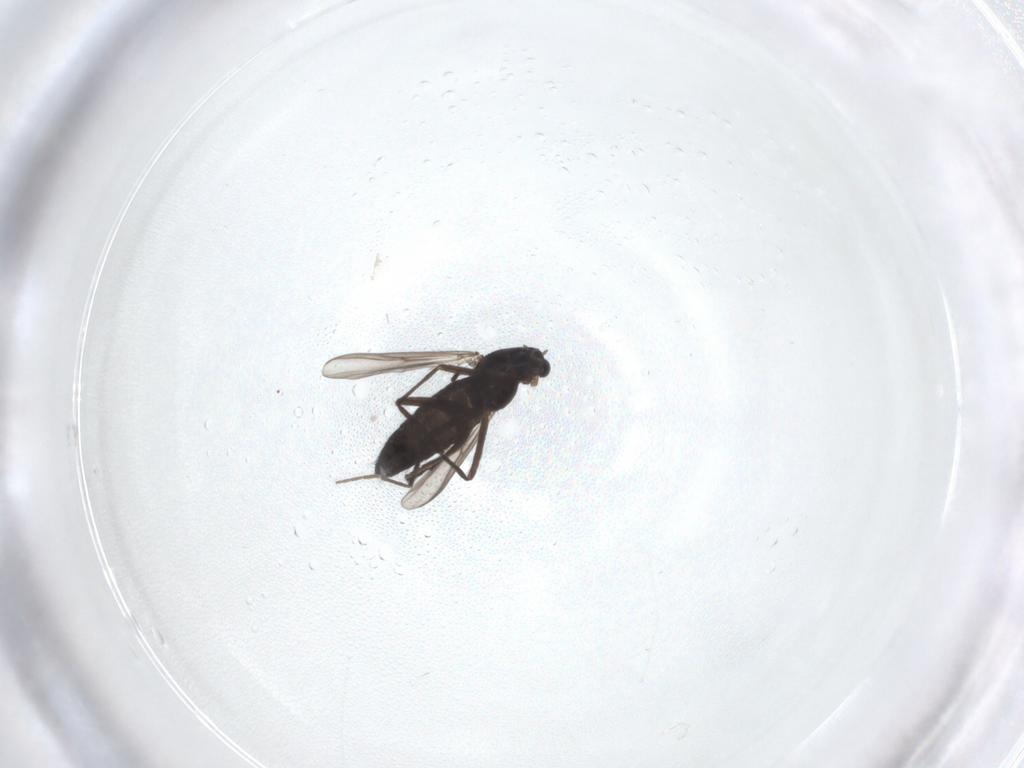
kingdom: Animalia
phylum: Arthropoda
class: Insecta
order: Diptera
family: Chironomidae
